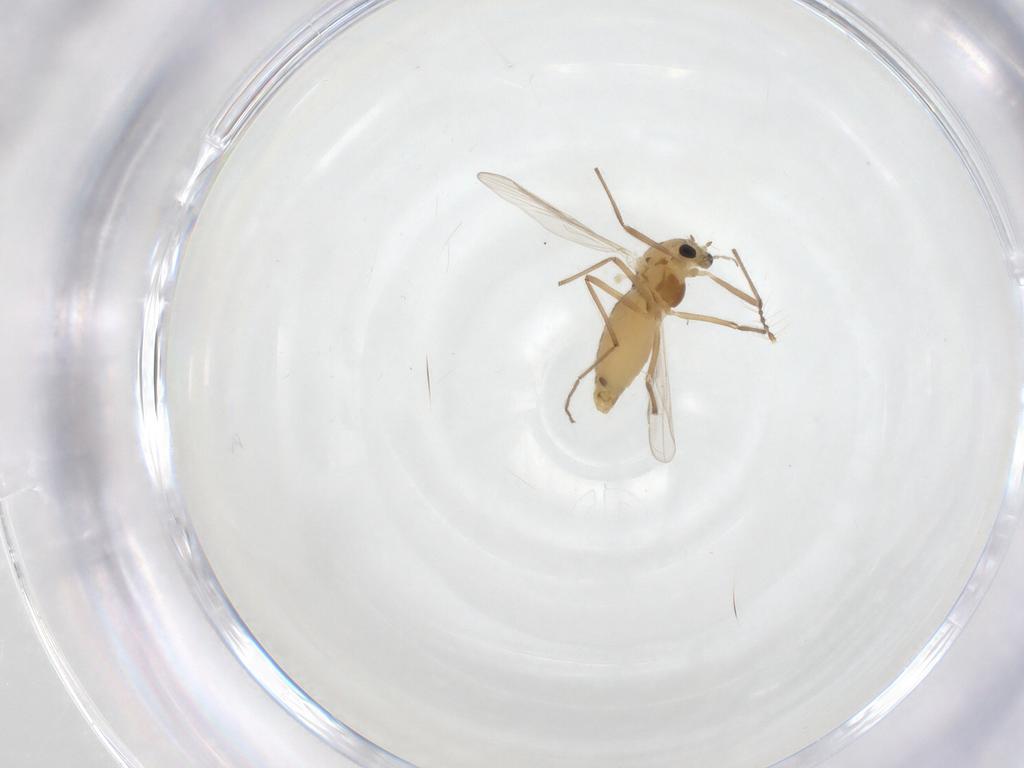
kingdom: Animalia
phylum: Arthropoda
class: Insecta
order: Diptera
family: Chironomidae
